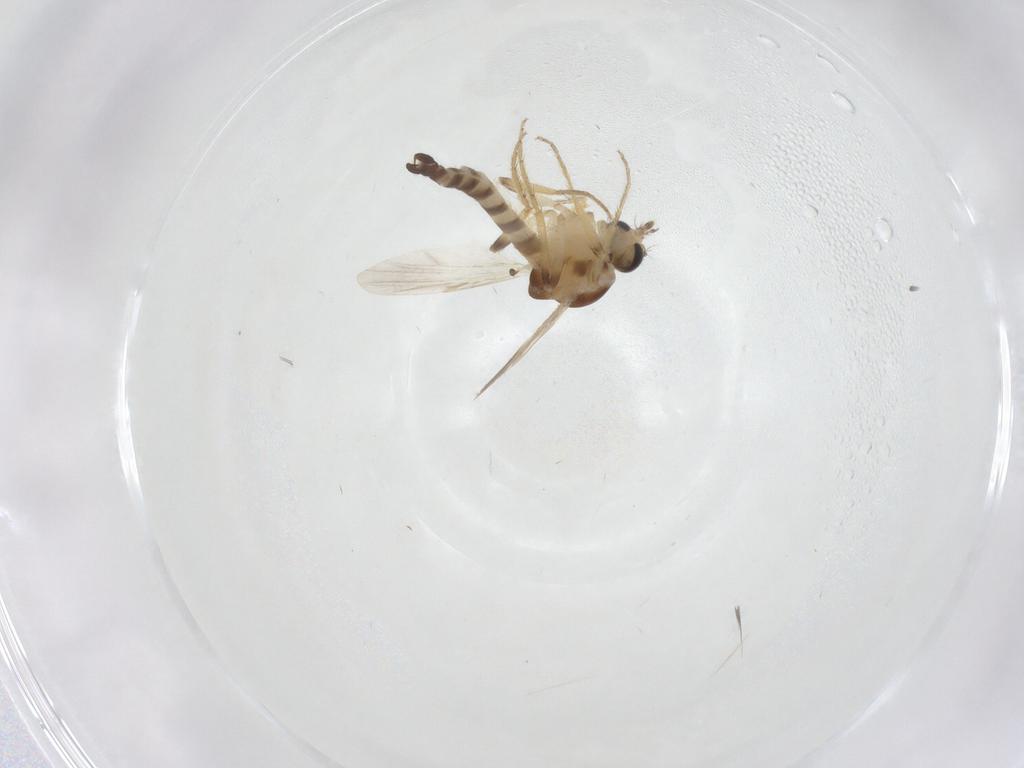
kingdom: Animalia
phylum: Arthropoda
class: Insecta
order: Diptera
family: Ceratopogonidae
